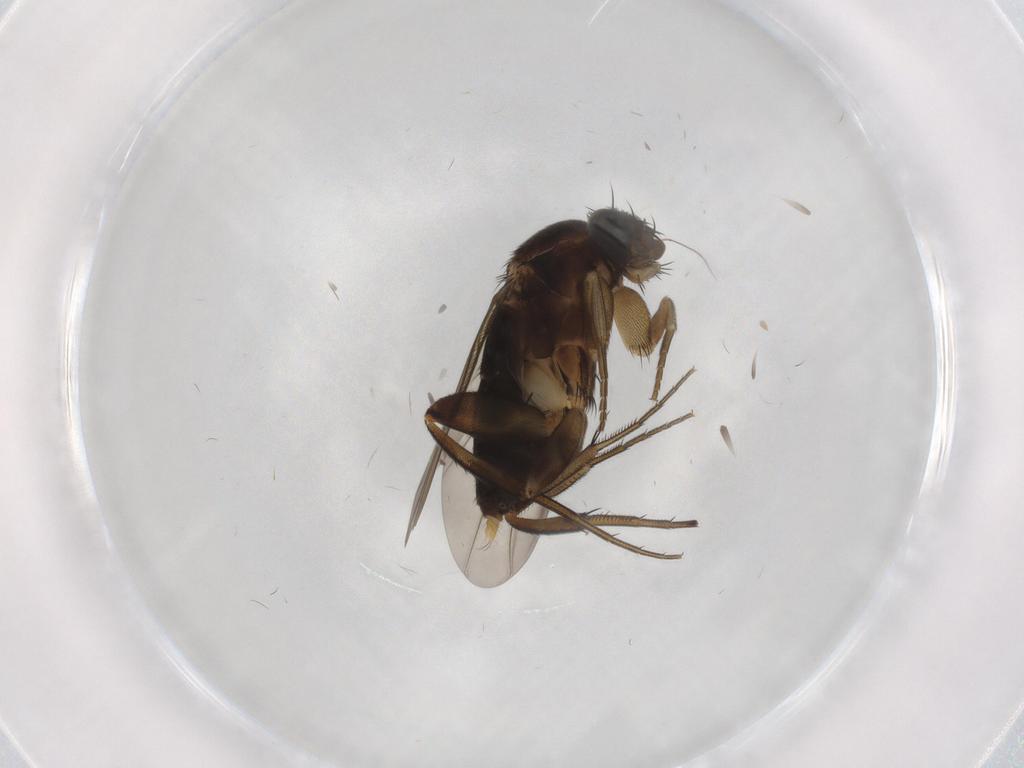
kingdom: Animalia
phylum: Arthropoda
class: Insecta
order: Diptera
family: Phoridae
